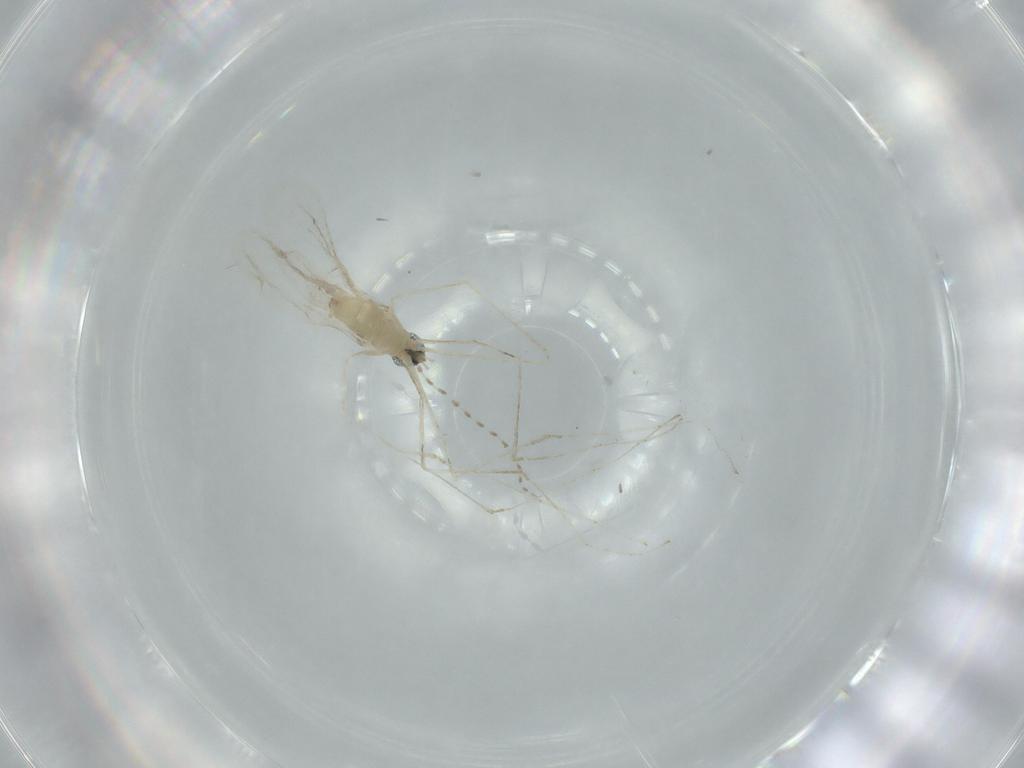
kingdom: Animalia
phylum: Arthropoda
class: Insecta
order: Diptera
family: Cecidomyiidae
